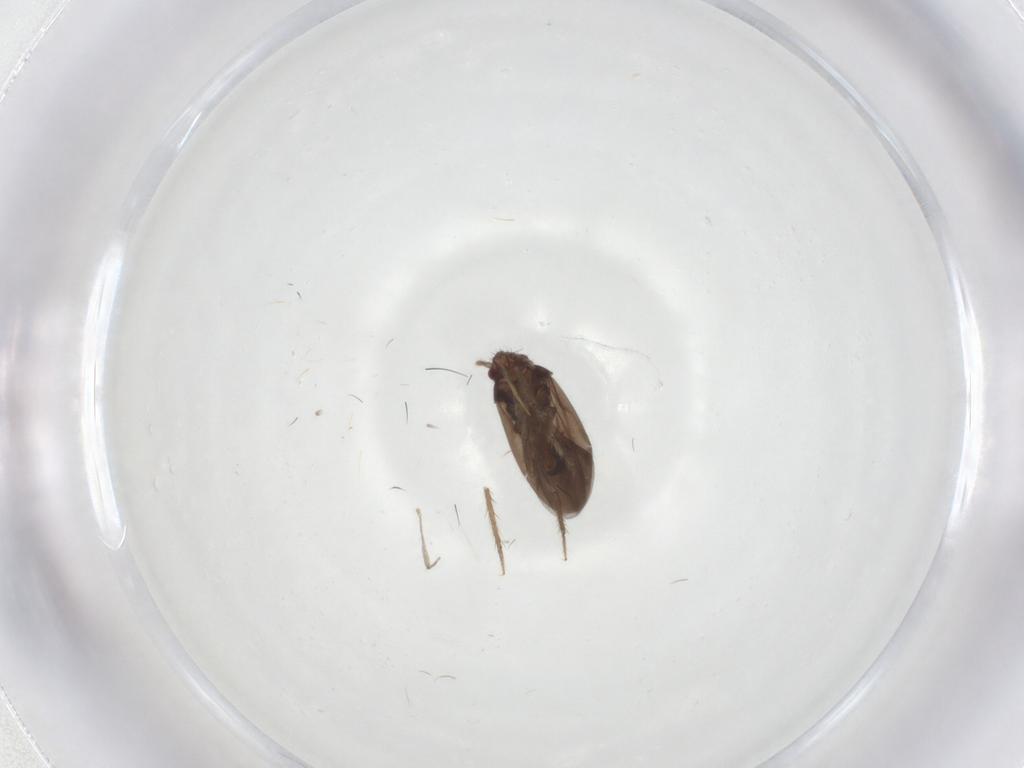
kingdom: Animalia
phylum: Arthropoda
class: Insecta
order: Hemiptera
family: Ceratocombidae
